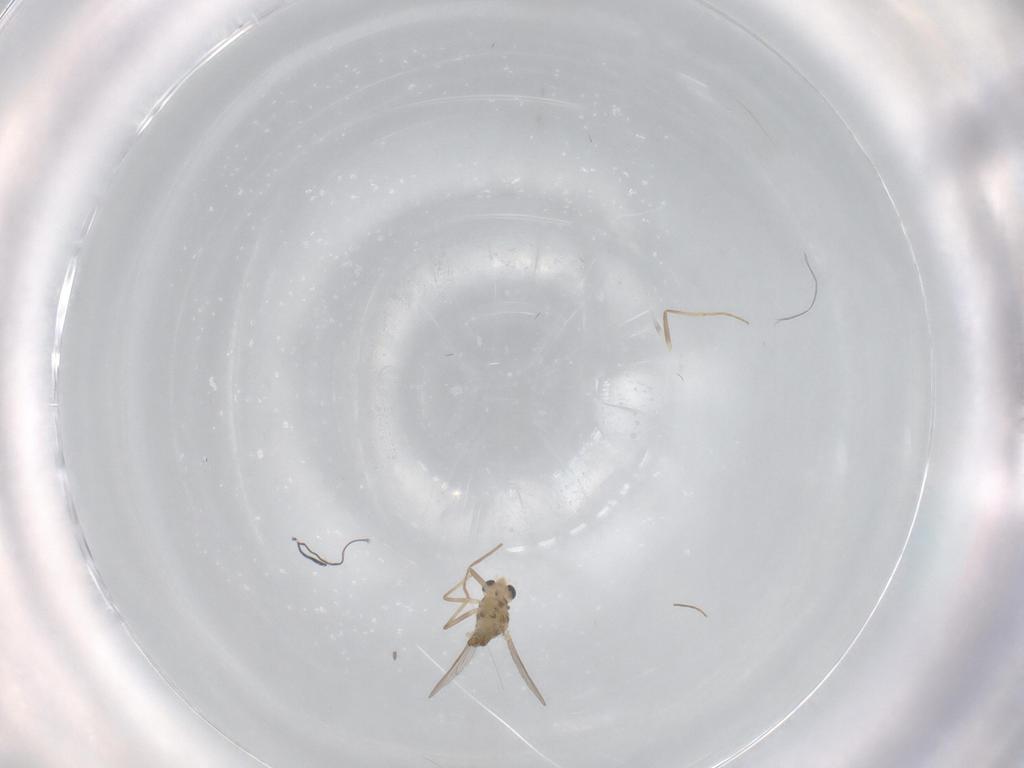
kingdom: Animalia
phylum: Arthropoda
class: Insecta
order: Diptera
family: Chironomidae
